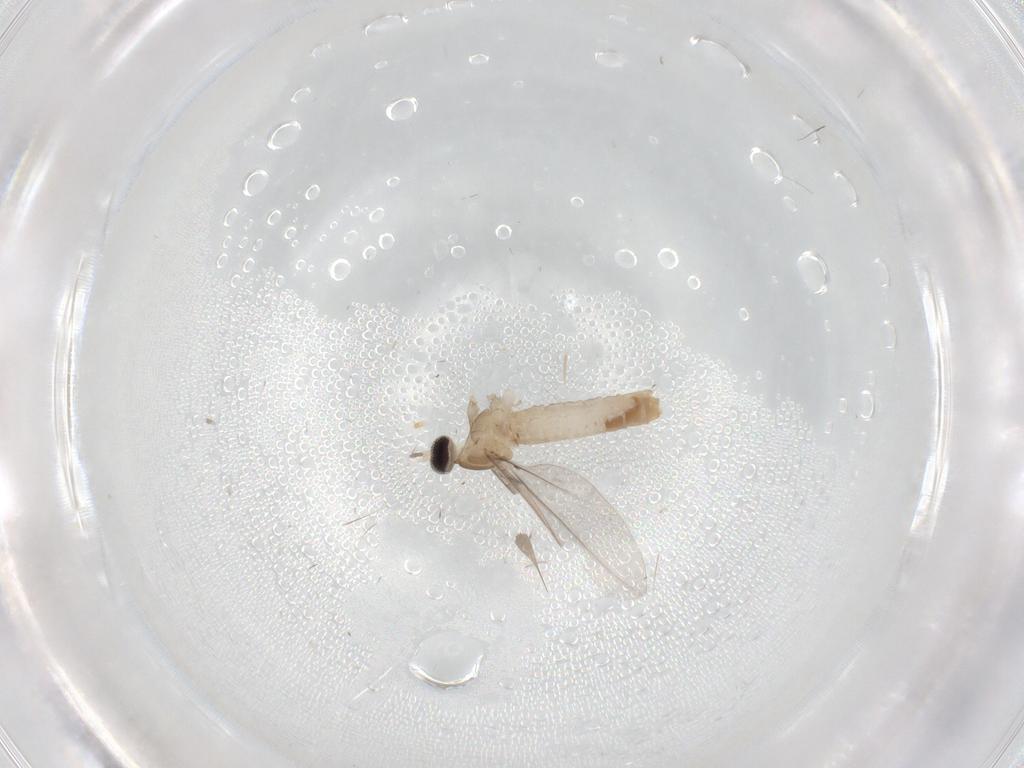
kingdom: Animalia
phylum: Arthropoda
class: Insecta
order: Diptera
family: Cecidomyiidae
